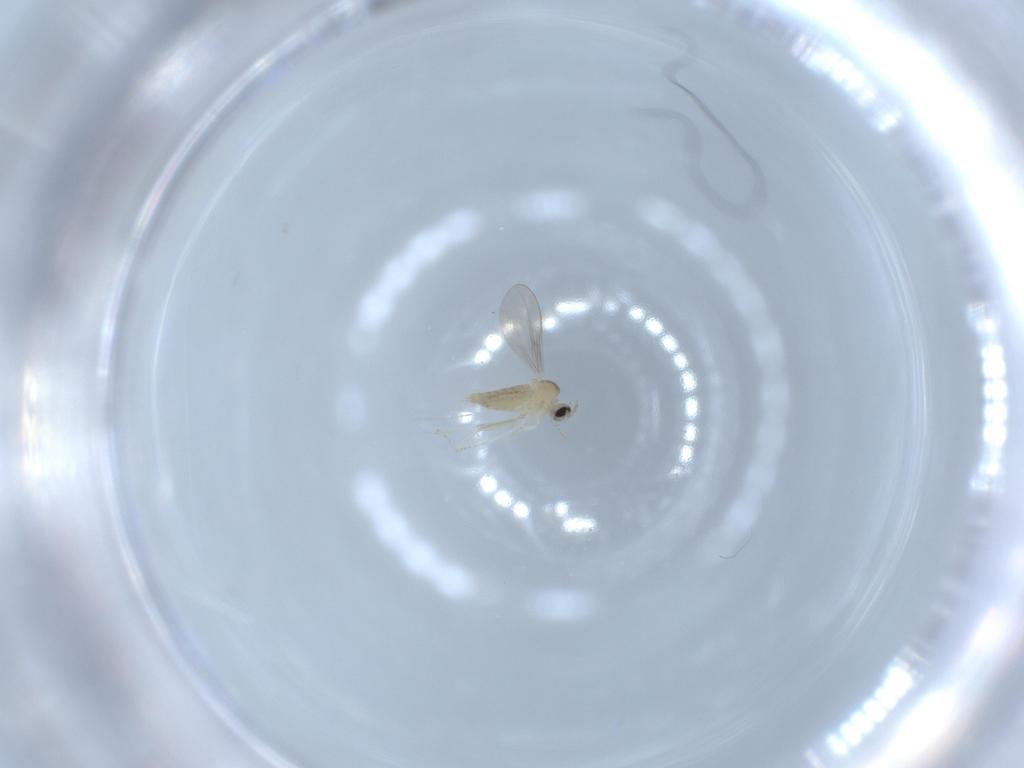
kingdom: Animalia
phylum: Arthropoda
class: Insecta
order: Diptera
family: Cecidomyiidae
